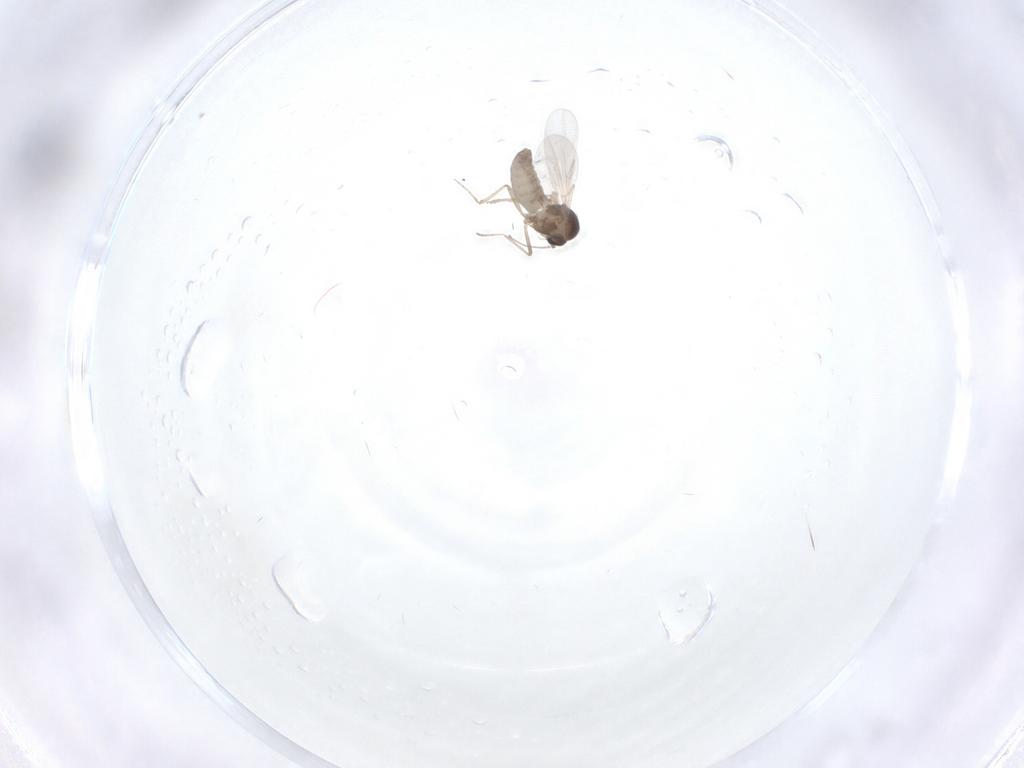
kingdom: Animalia
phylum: Arthropoda
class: Insecta
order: Diptera
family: Ceratopogonidae
